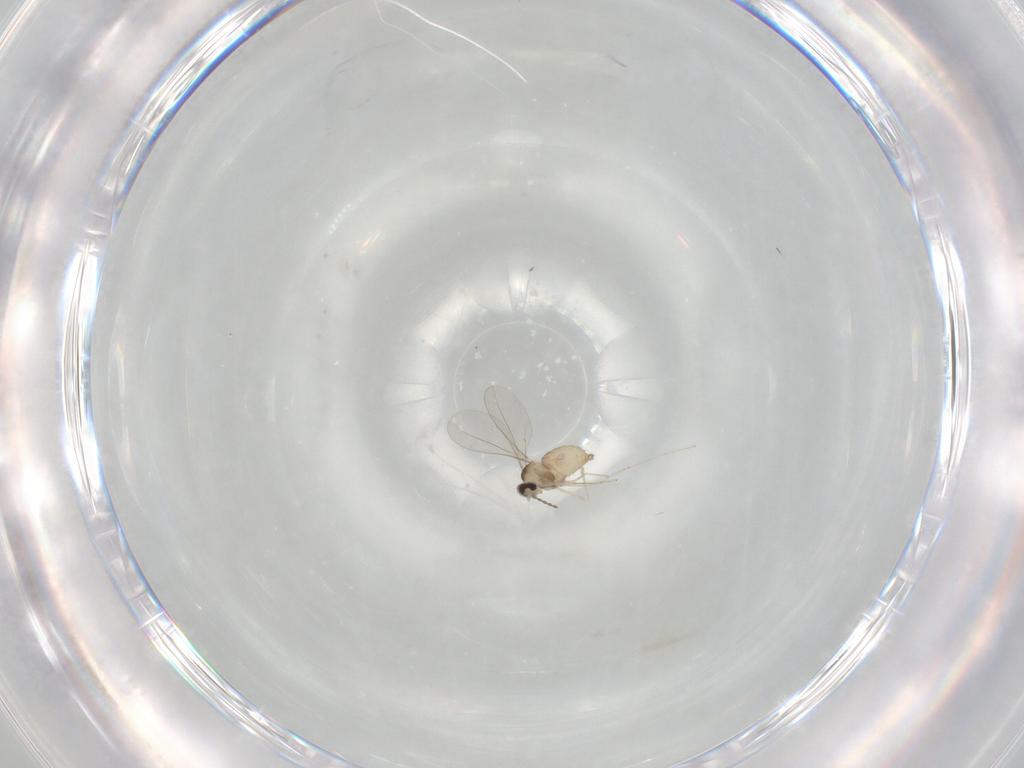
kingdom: Animalia
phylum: Arthropoda
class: Insecta
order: Diptera
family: Cecidomyiidae
